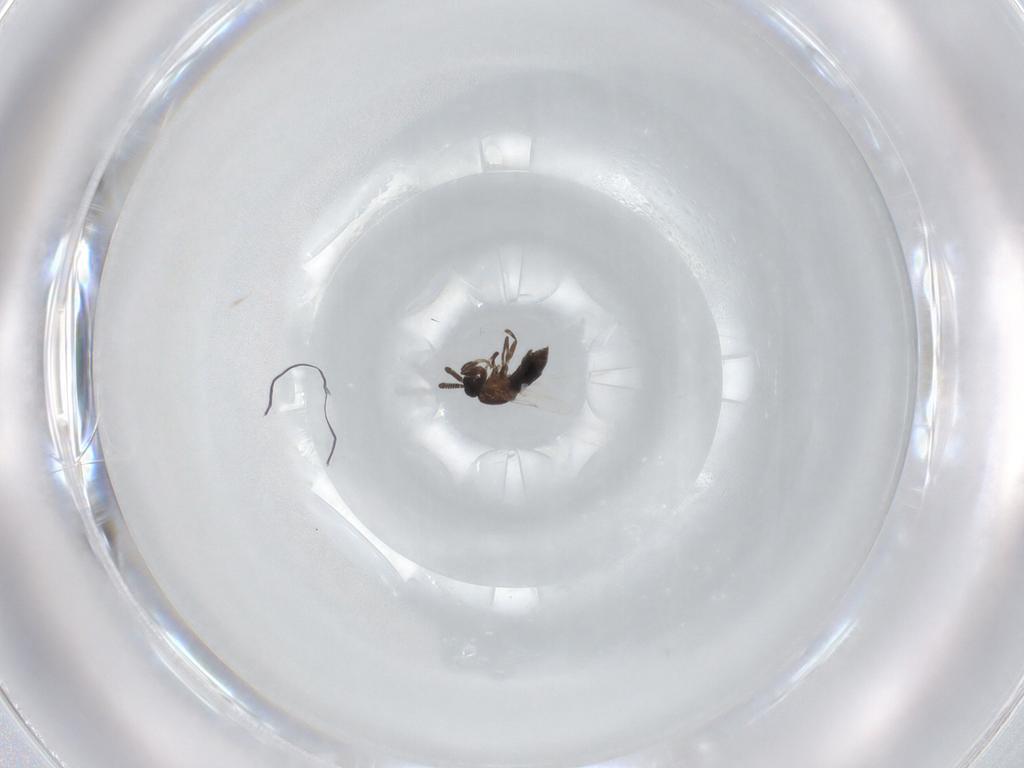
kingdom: Animalia
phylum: Arthropoda
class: Insecta
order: Diptera
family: Scatopsidae
